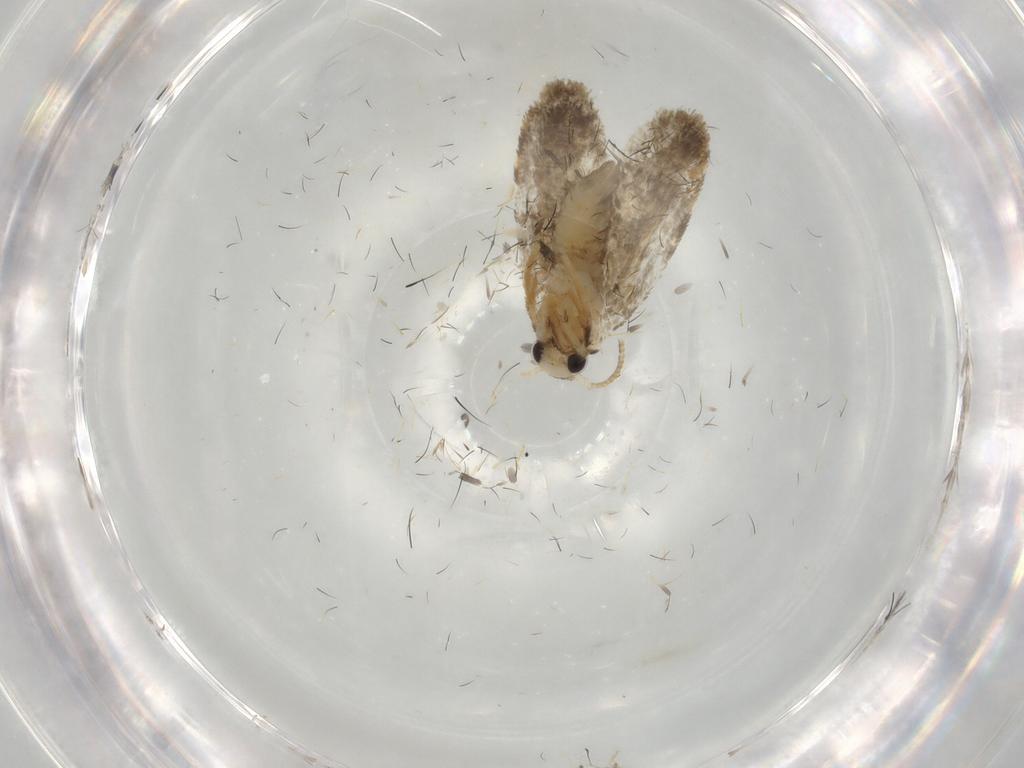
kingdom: Animalia
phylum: Arthropoda
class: Insecta
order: Lepidoptera
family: Psychidae
